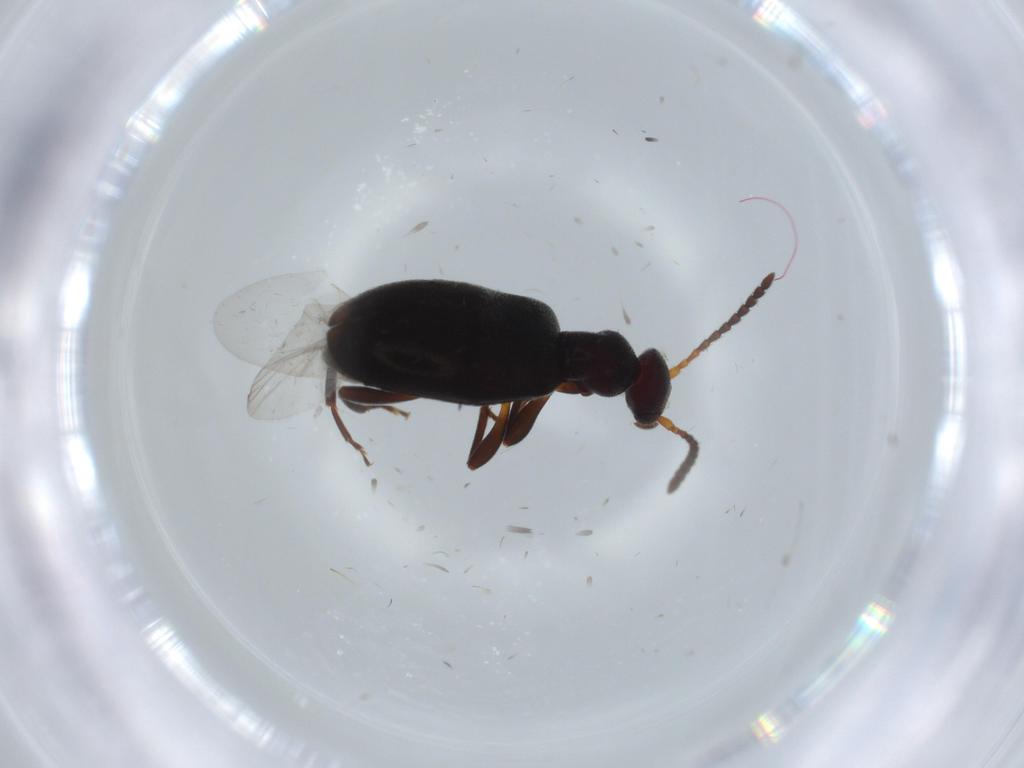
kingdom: Animalia
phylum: Arthropoda
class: Insecta
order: Coleoptera
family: Anthicidae
